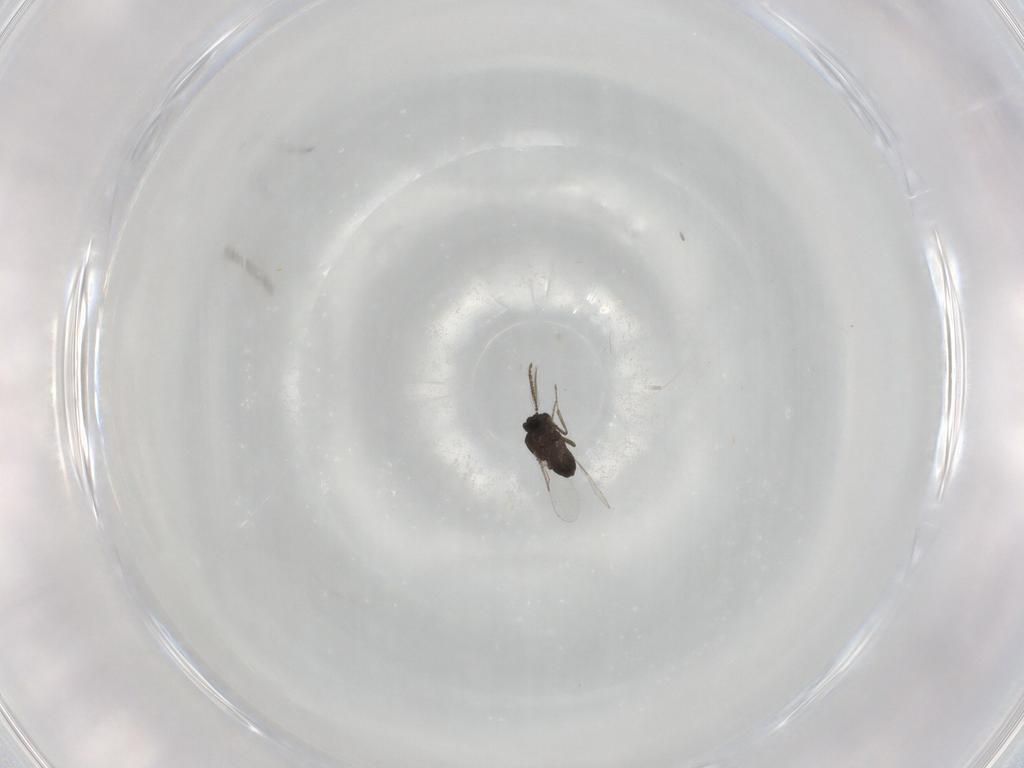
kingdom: Animalia
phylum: Arthropoda
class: Insecta
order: Diptera
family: Ceratopogonidae
